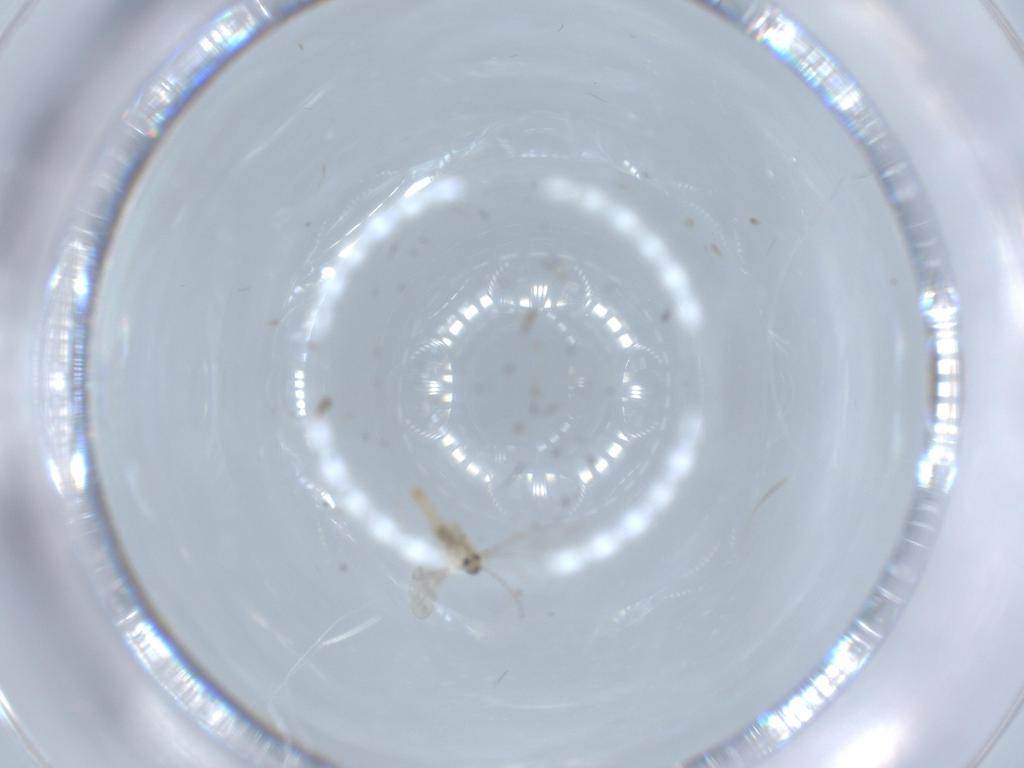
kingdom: Animalia
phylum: Arthropoda
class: Insecta
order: Diptera
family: Cecidomyiidae
